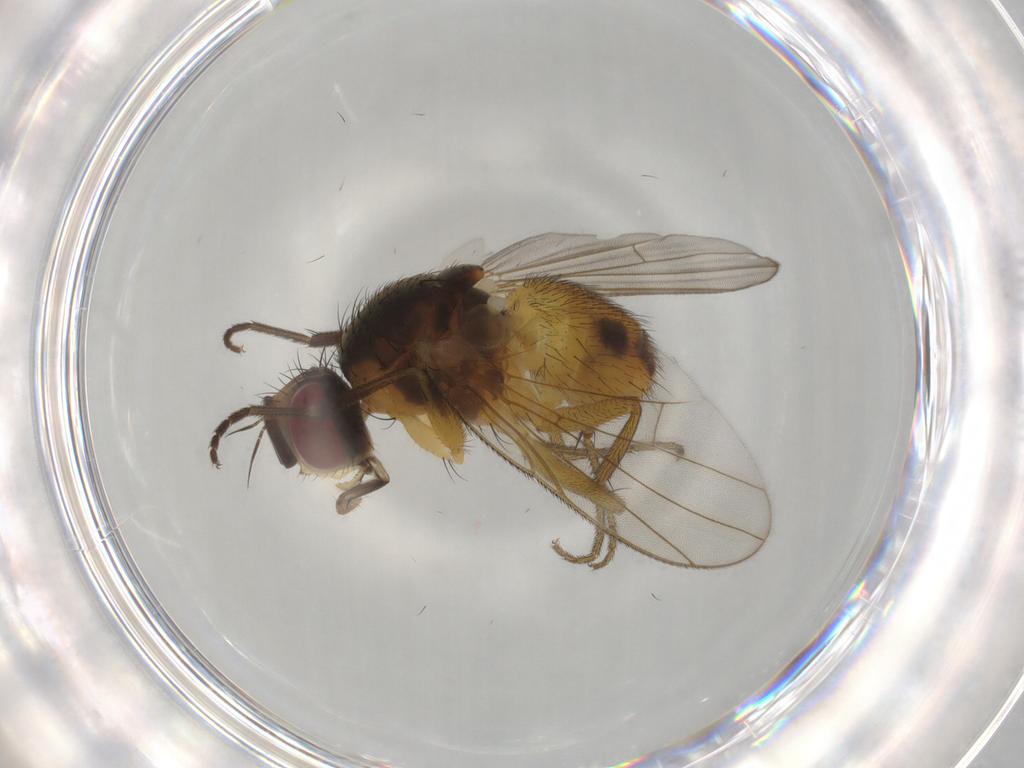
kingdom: Animalia
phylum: Arthropoda
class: Insecta
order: Diptera
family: Muscidae
